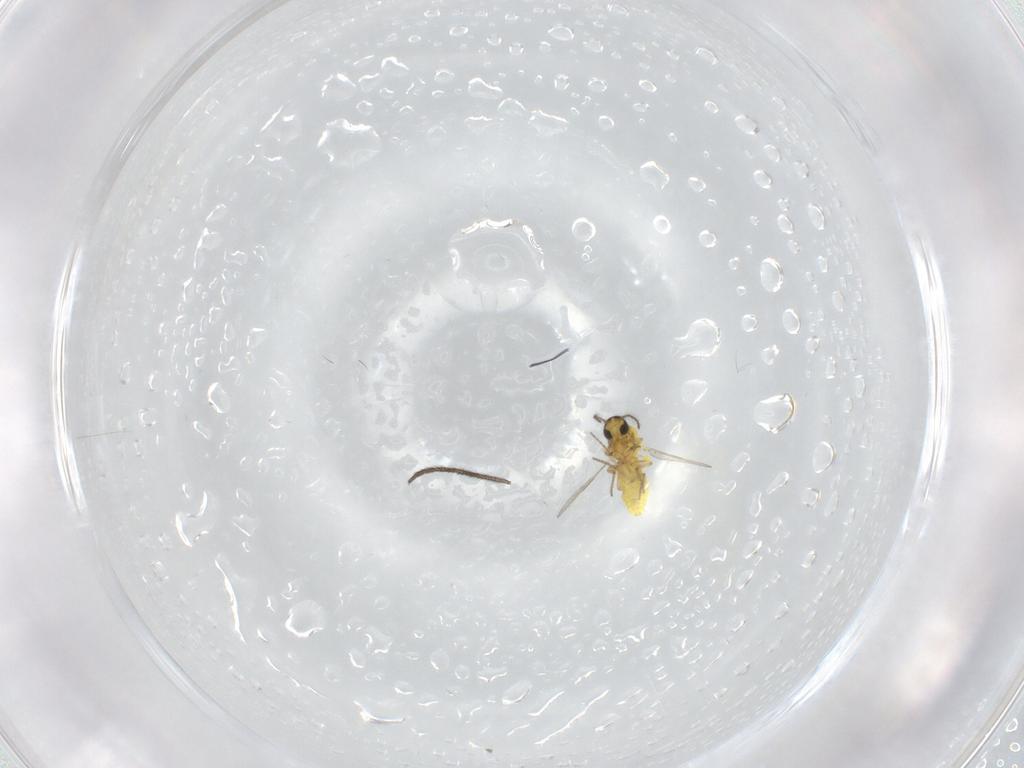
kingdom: Animalia
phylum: Arthropoda
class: Insecta
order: Diptera
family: Ceratopogonidae
